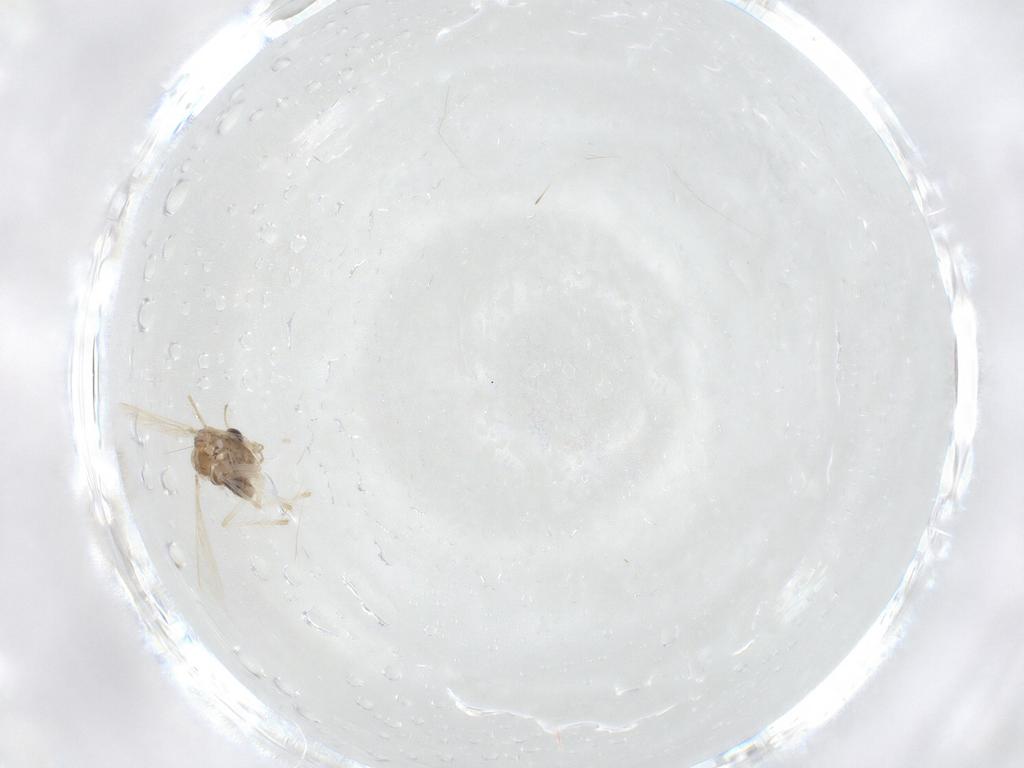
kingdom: Animalia
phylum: Arthropoda
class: Insecta
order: Diptera
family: Chironomidae
